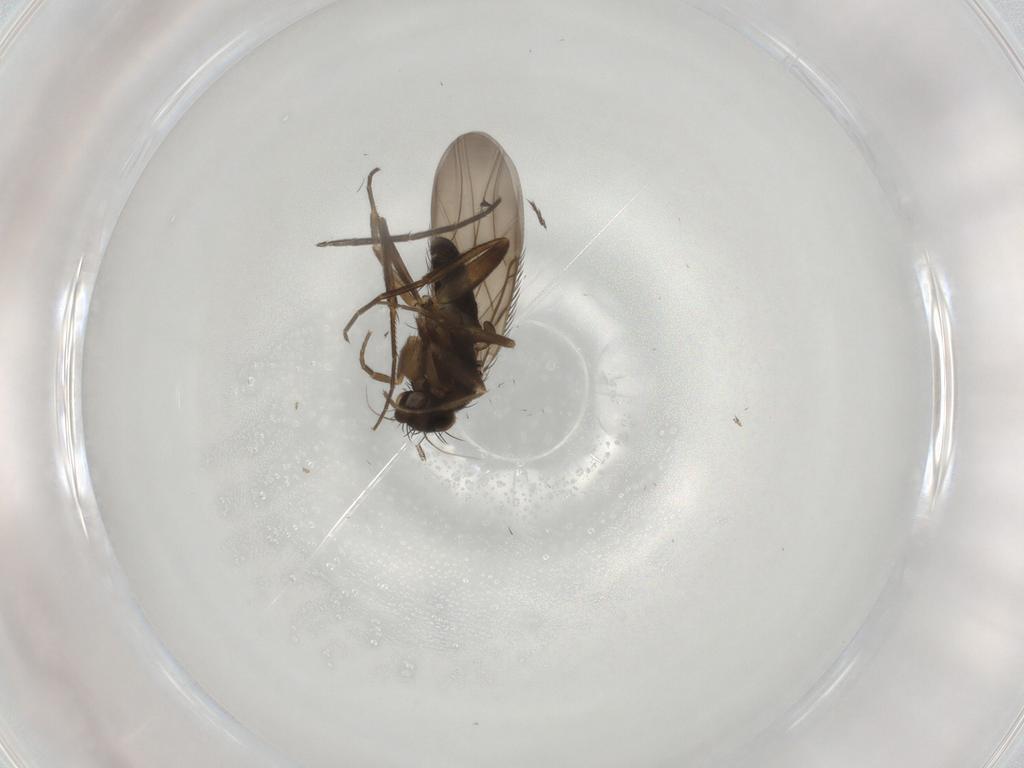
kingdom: Animalia
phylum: Arthropoda
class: Insecta
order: Diptera
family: Phoridae
